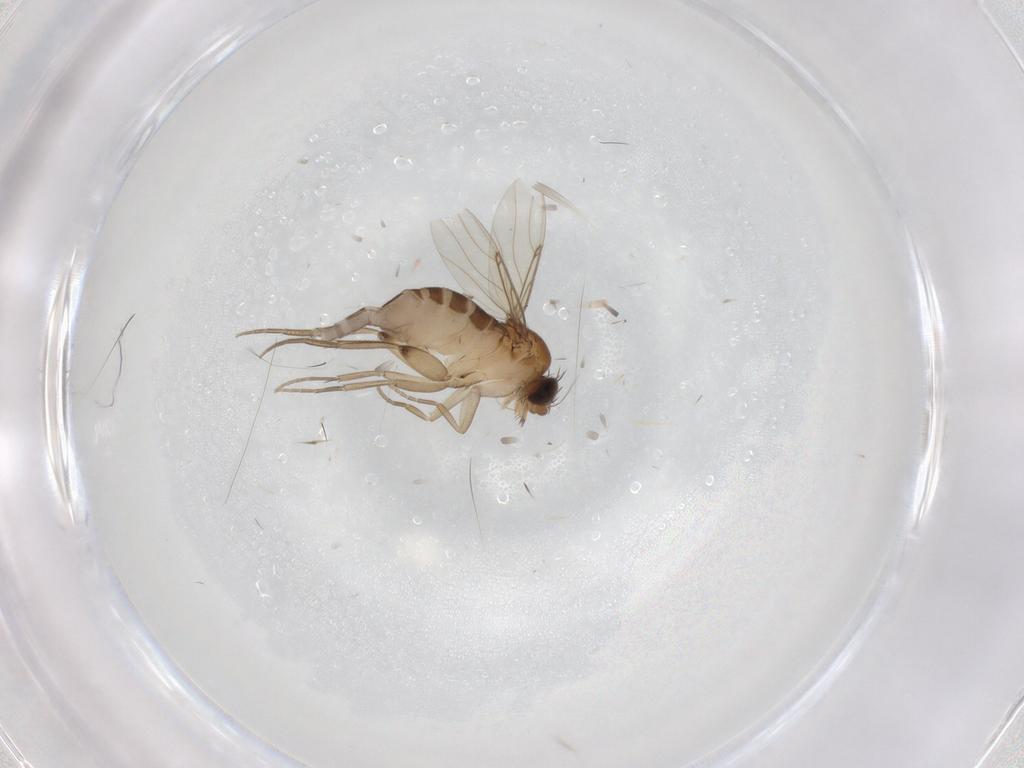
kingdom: Animalia
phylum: Arthropoda
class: Insecta
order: Diptera
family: Phoridae
